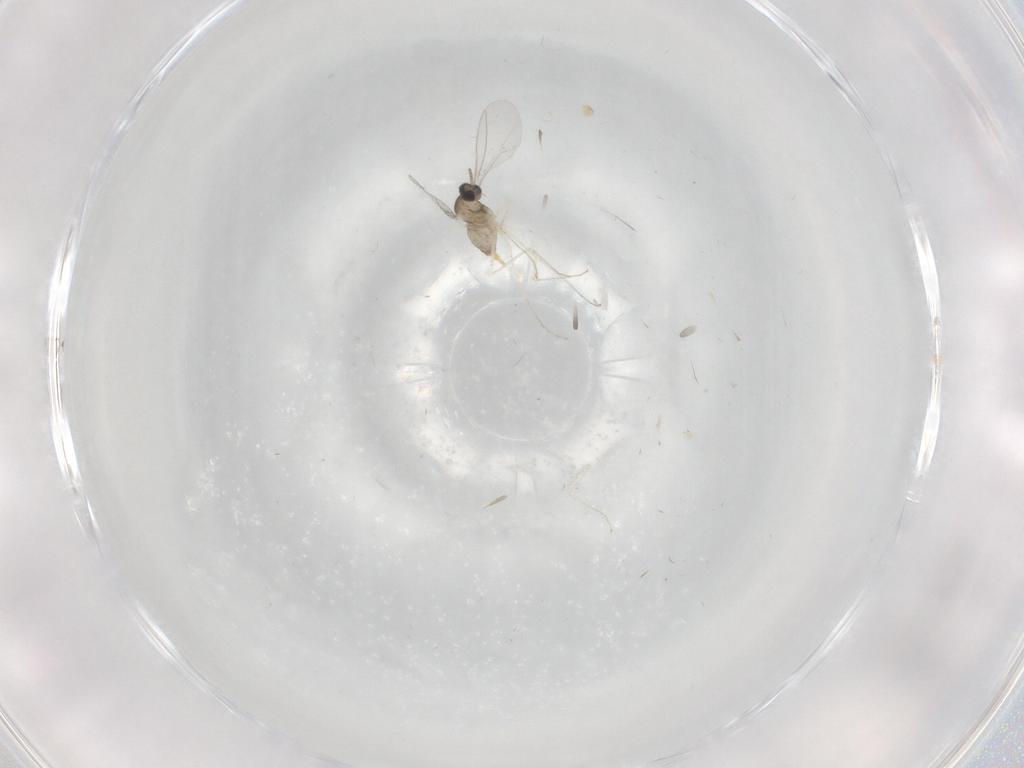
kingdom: Animalia
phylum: Arthropoda
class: Insecta
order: Diptera
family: Cecidomyiidae
